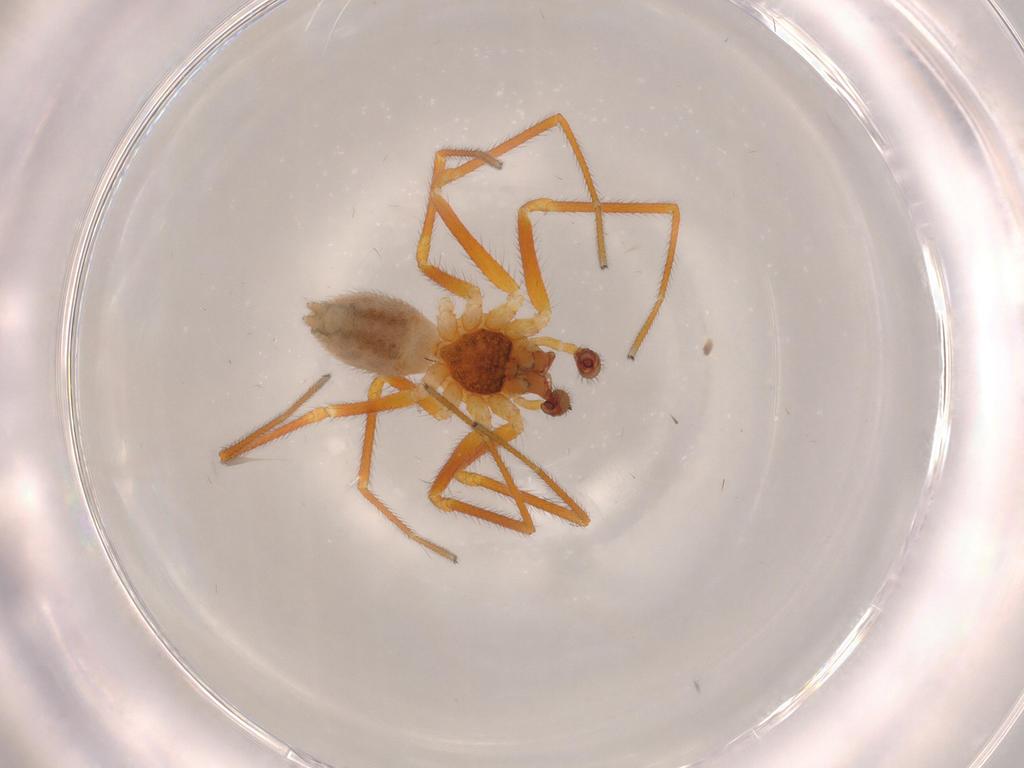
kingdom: Animalia
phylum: Arthropoda
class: Arachnida
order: Araneae
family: Linyphiidae
